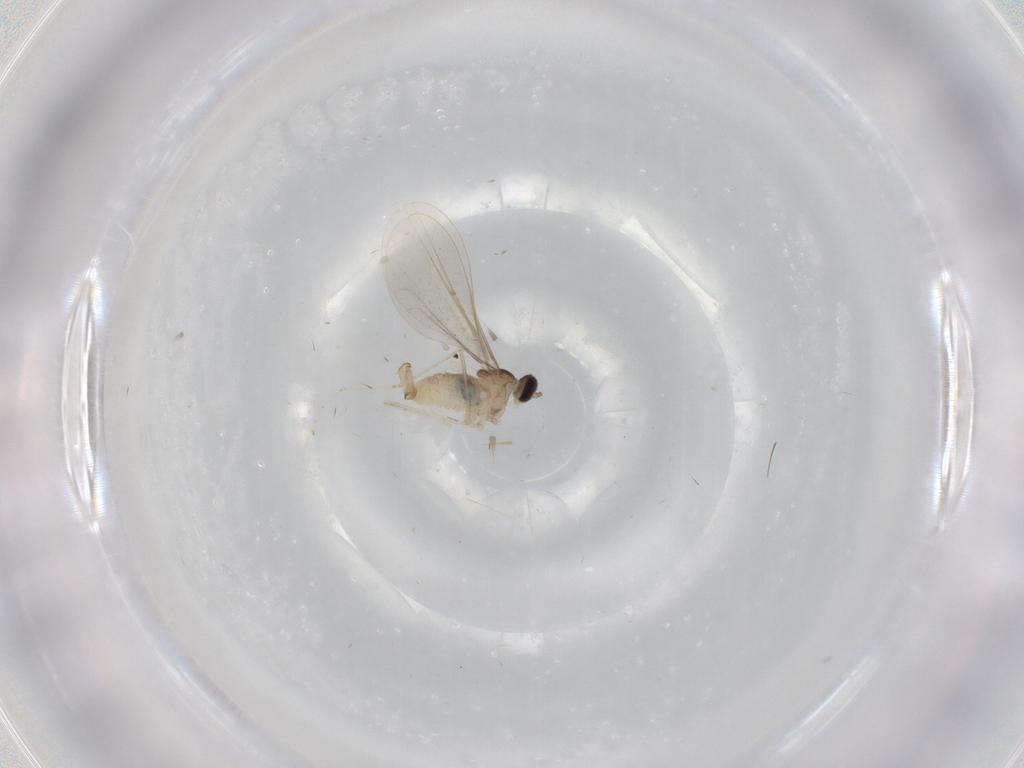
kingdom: Animalia
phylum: Arthropoda
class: Insecta
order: Diptera
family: Cecidomyiidae
